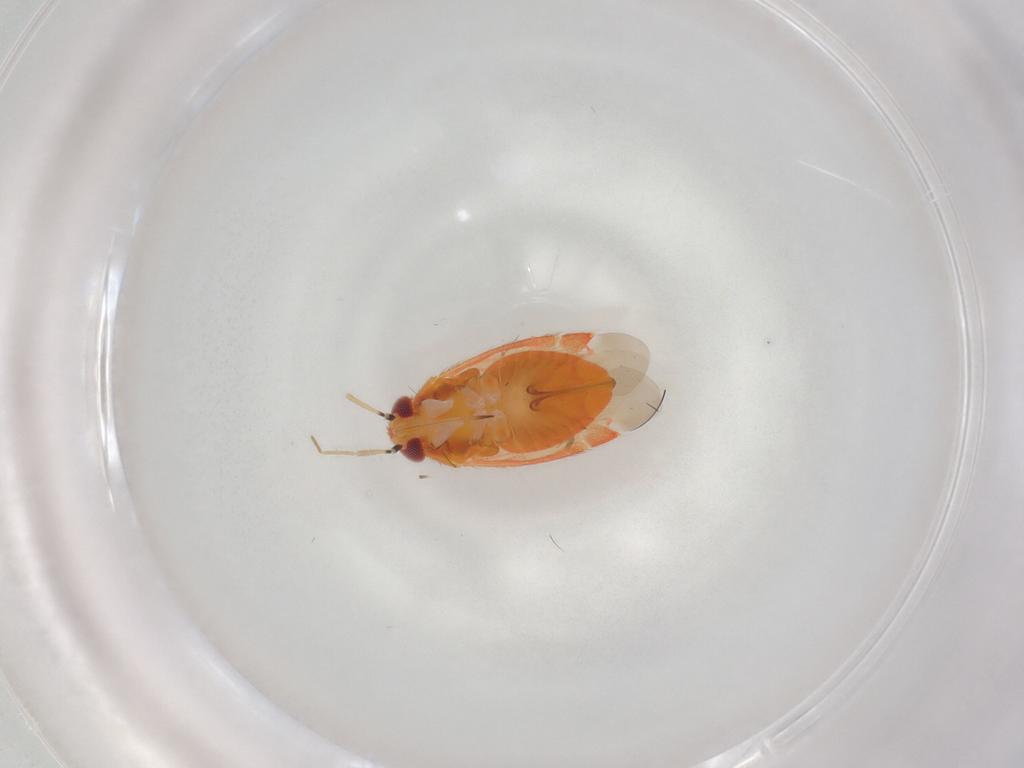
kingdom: Animalia
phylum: Arthropoda
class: Insecta
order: Hemiptera
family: Miridae
